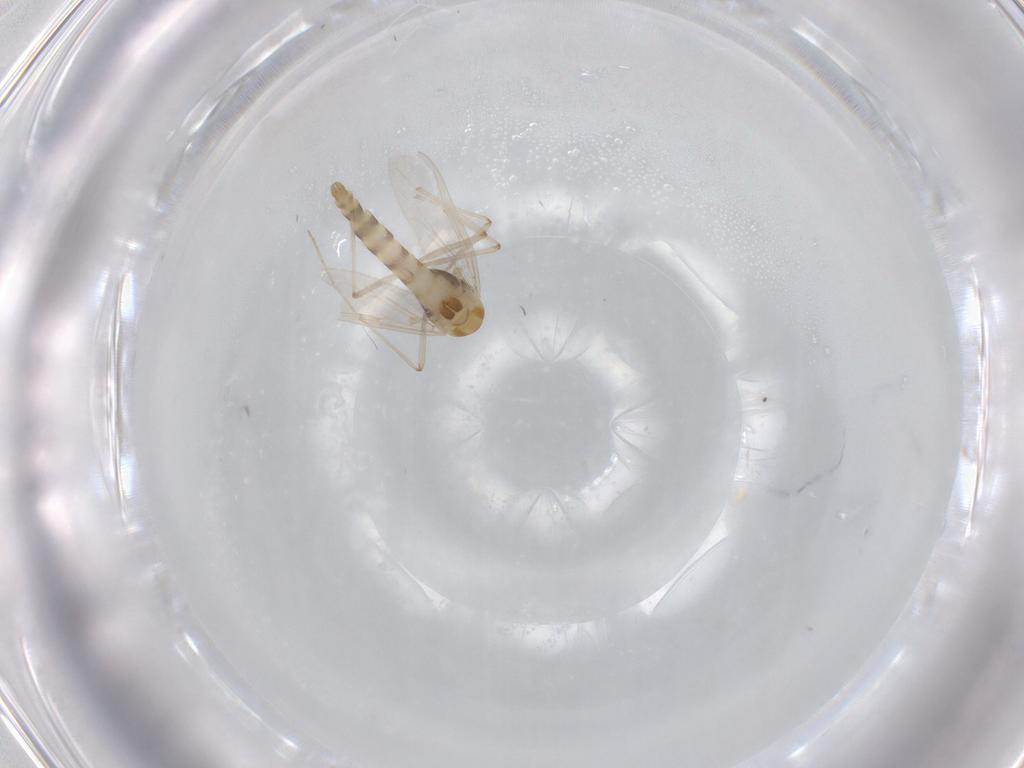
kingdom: Animalia
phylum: Arthropoda
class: Insecta
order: Diptera
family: Chironomidae
